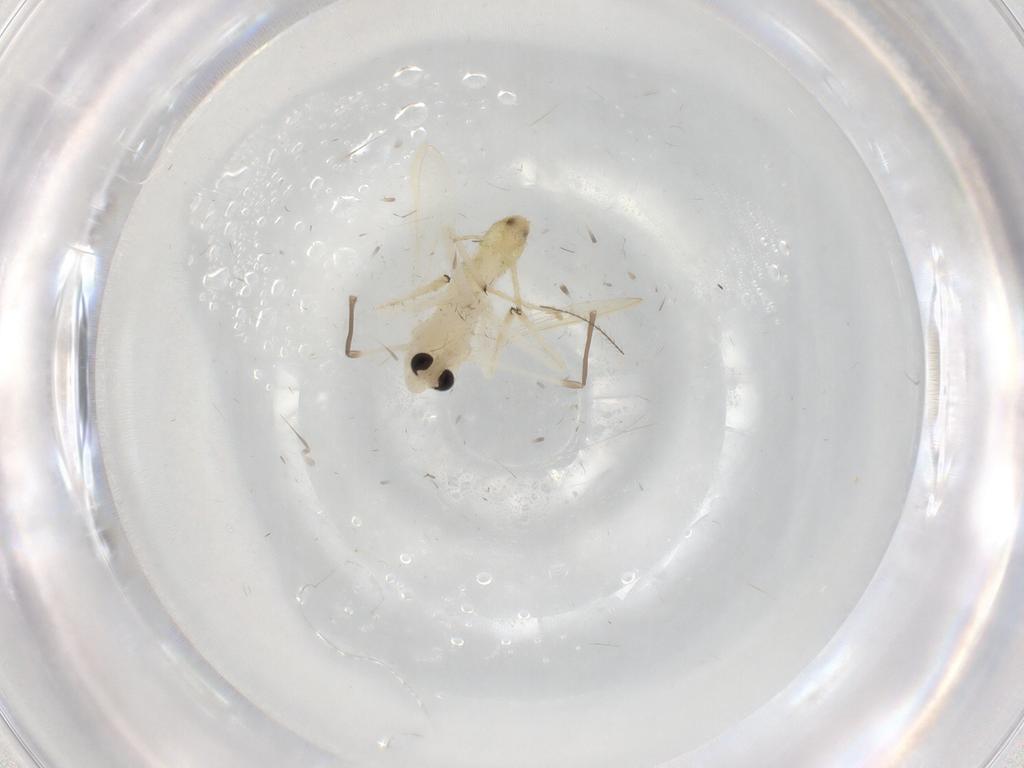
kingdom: Animalia
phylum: Arthropoda
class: Insecta
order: Diptera
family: Chironomidae
